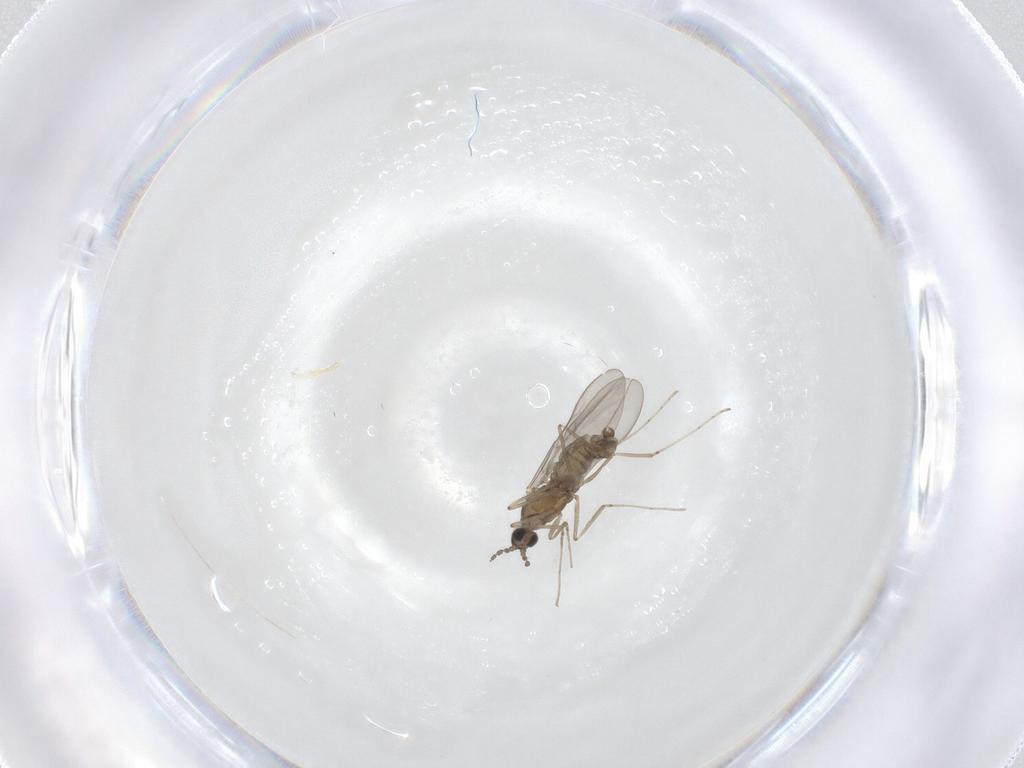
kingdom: Animalia
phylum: Arthropoda
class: Insecta
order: Diptera
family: Cecidomyiidae
